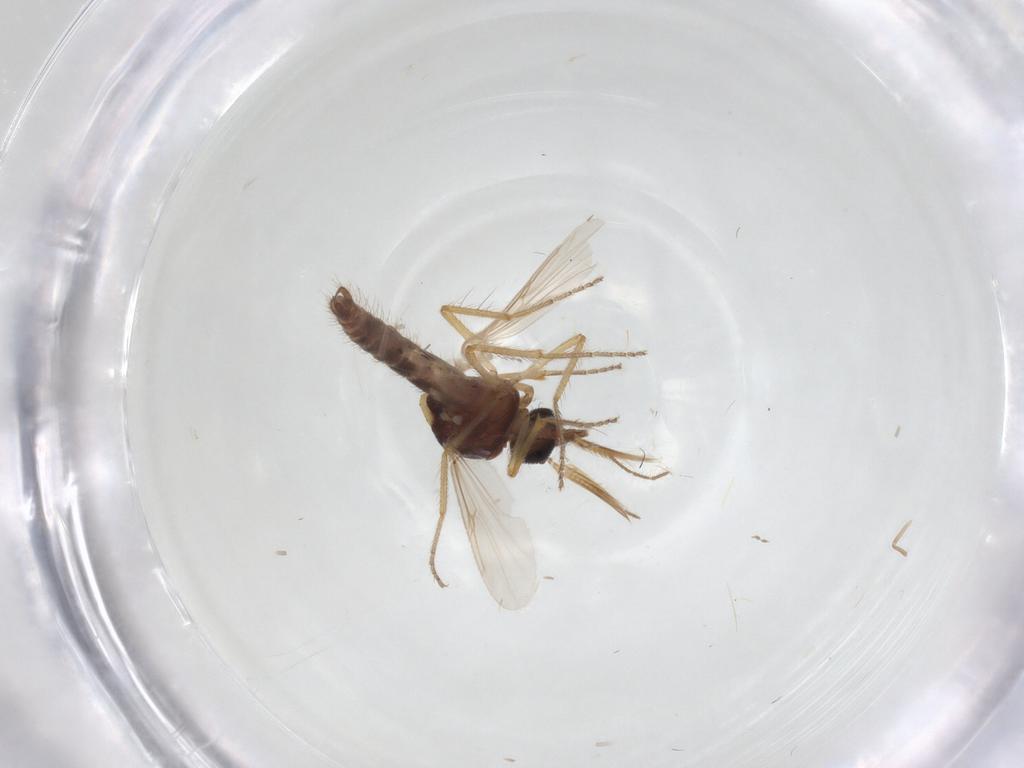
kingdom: Animalia
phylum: Arthropoda
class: Insecta
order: Diptera
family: Ceratopogonidae
